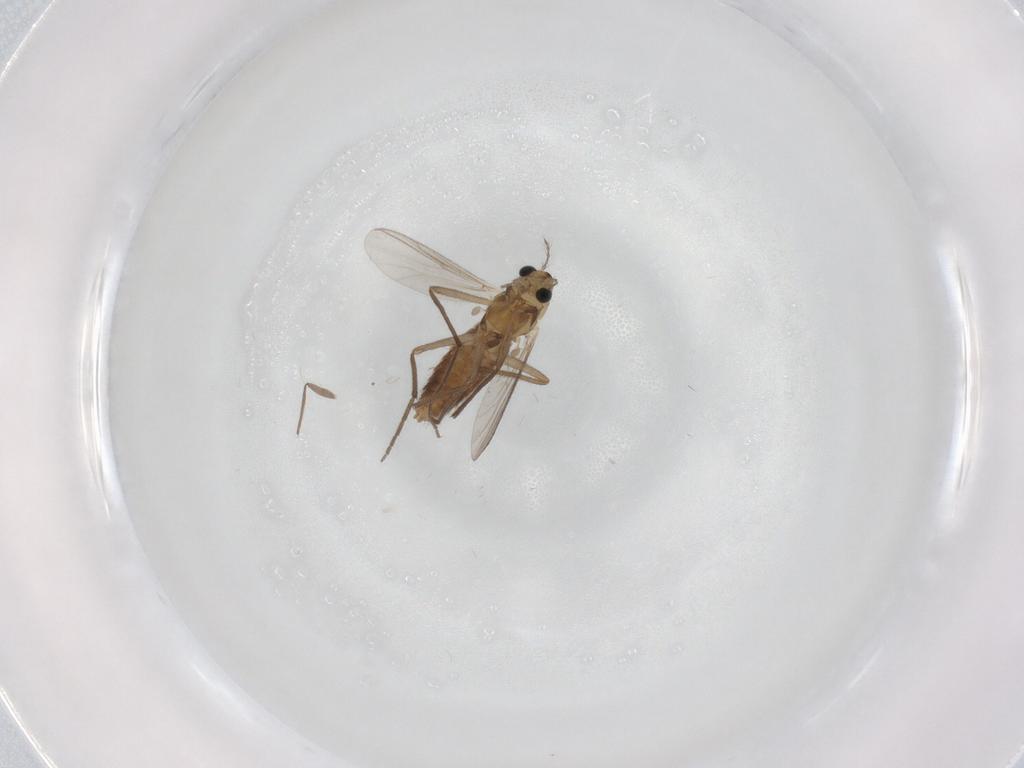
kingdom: Animalia
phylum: Arthropoda
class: Insecta
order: Diptera
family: Chironomidae
